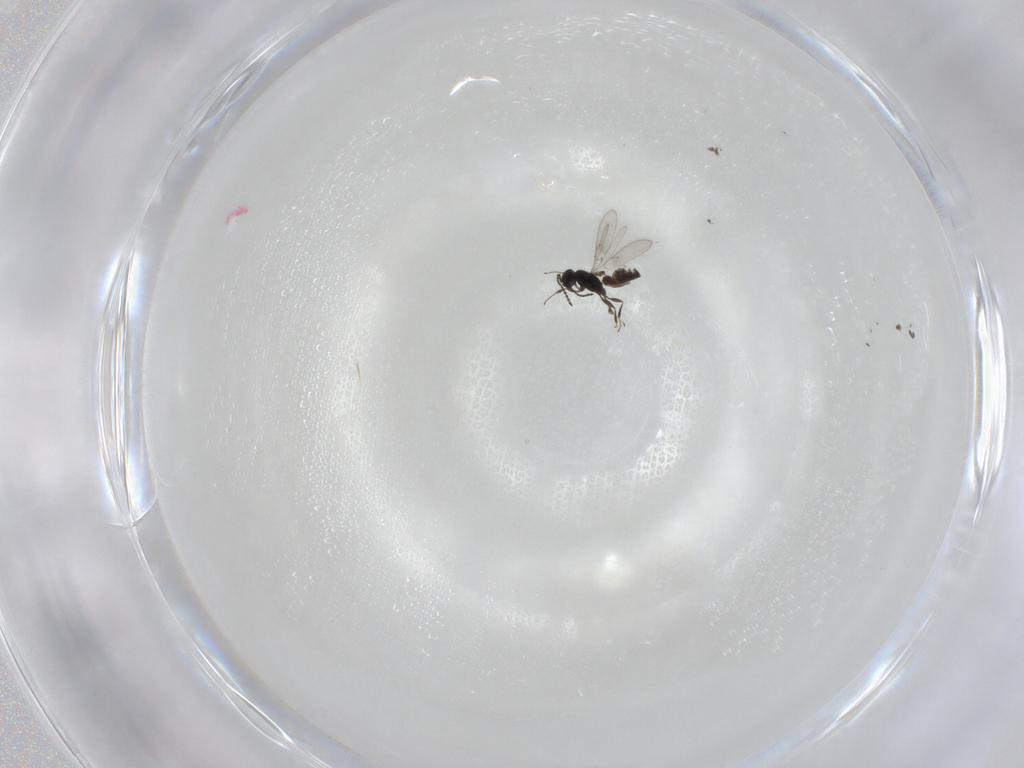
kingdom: Animalia
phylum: Arthropoda
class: Insecta
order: Hymenoptera
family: Scelionidae
